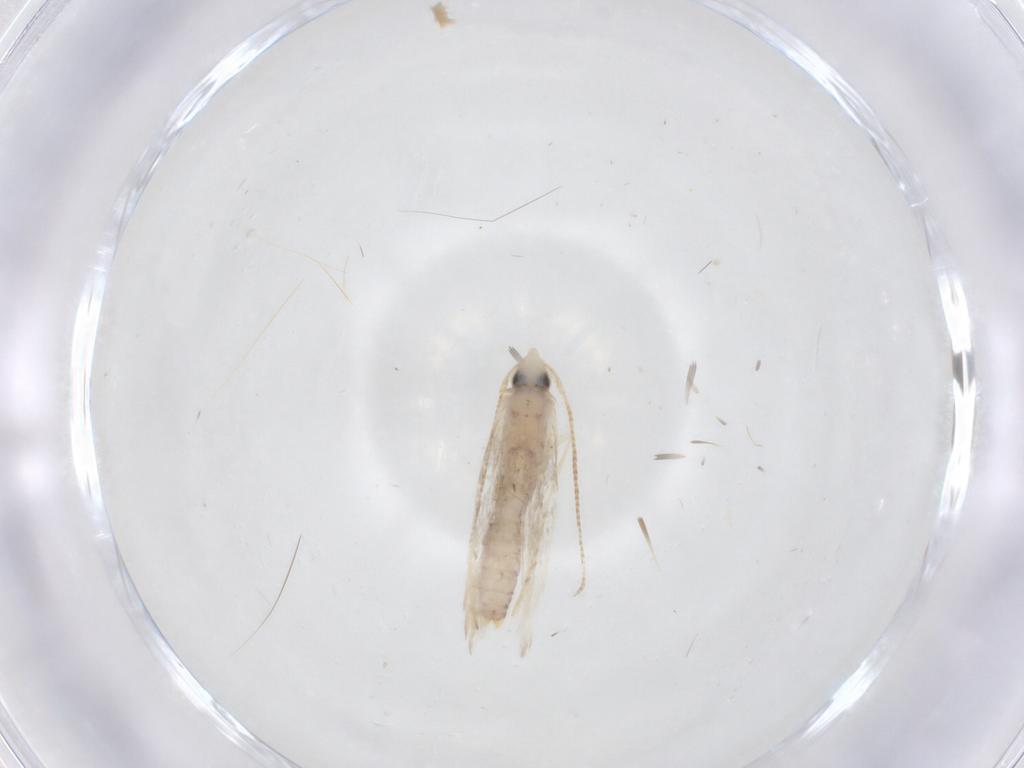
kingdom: Animalia
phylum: Arthropoda
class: Insecta
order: Lepidoptera
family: Tineidae
